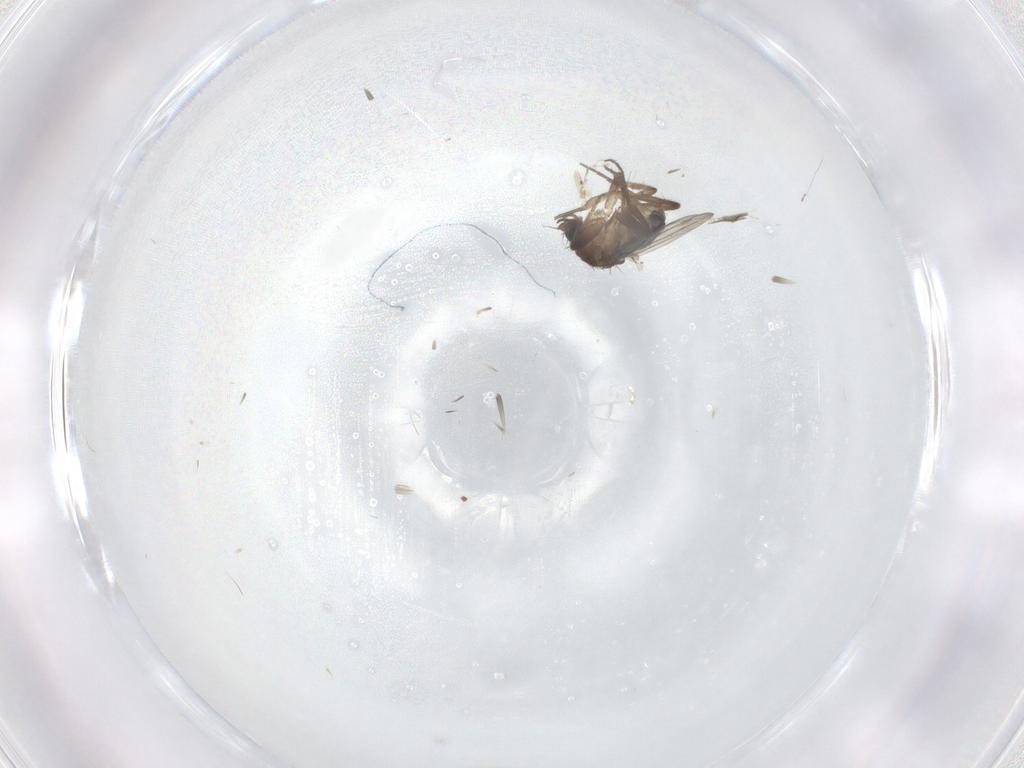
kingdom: Animalia
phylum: Arthropoda
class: Insecta
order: Diptera
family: Phoridae
